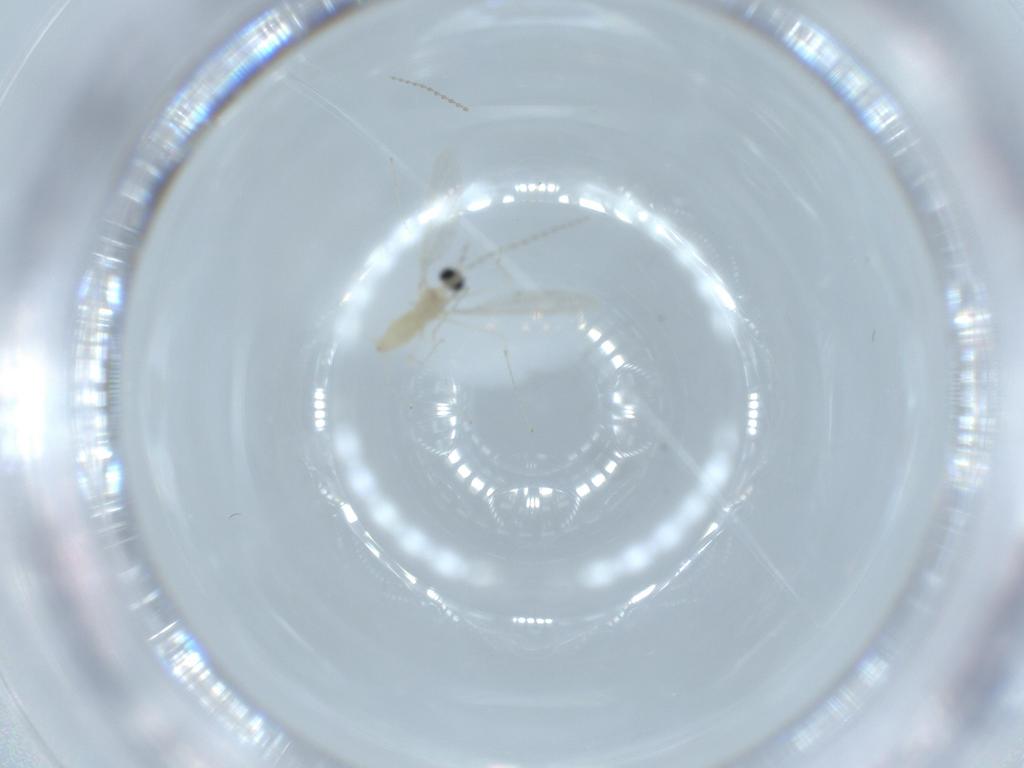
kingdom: Animalia
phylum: Arthropoda
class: Insecta
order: Diptera
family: Cecidomyiidae
